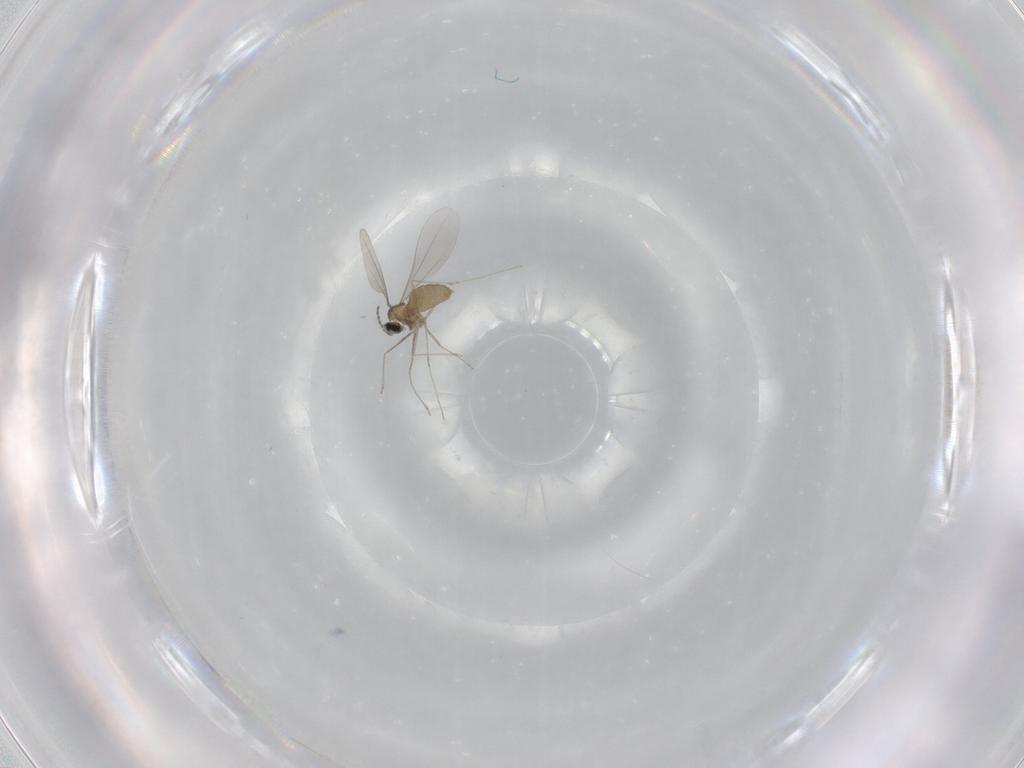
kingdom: Animalia
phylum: Arthropoda
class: Insecta
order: Diptera
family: Cecidomyiidae
